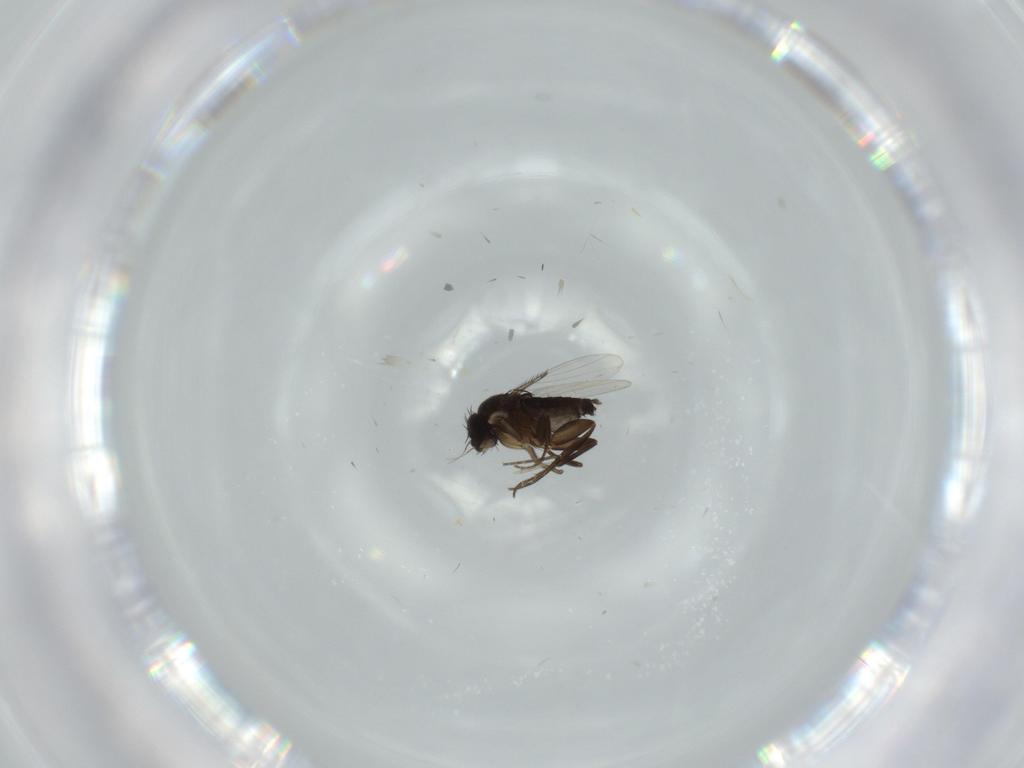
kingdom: Animalia
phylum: Arthropoda
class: Insecta
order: Diptera
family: Phoridae
